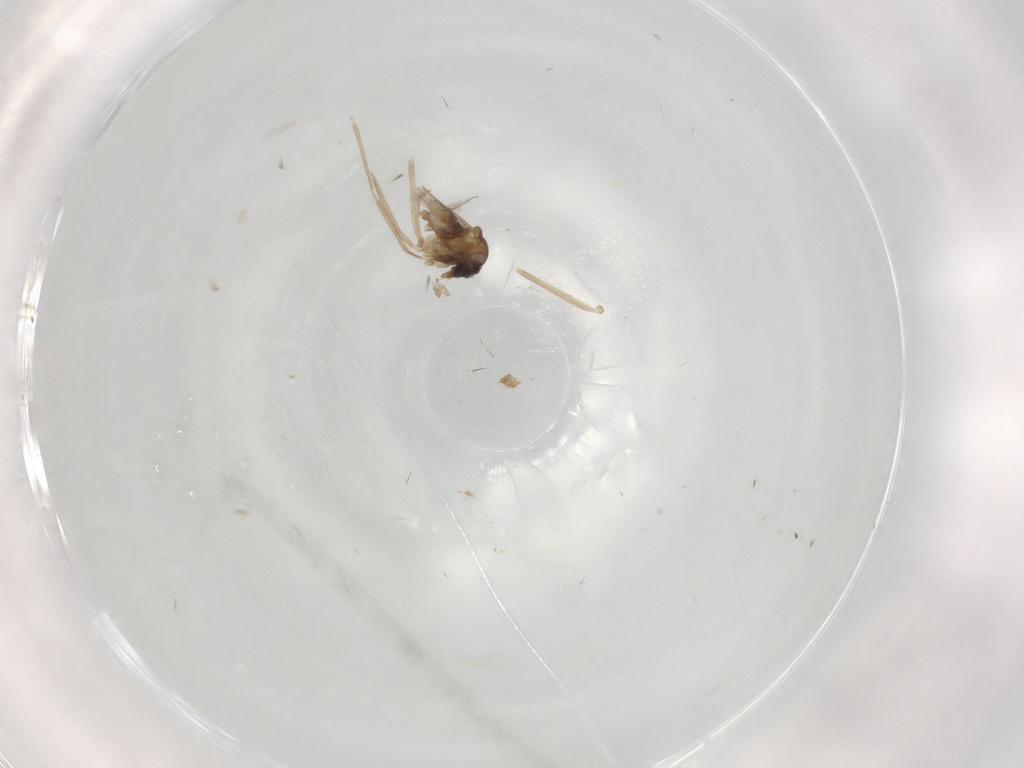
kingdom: Animalia
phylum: Arthropoda
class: Insecta
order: Diptera
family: Cecidomyiidae
